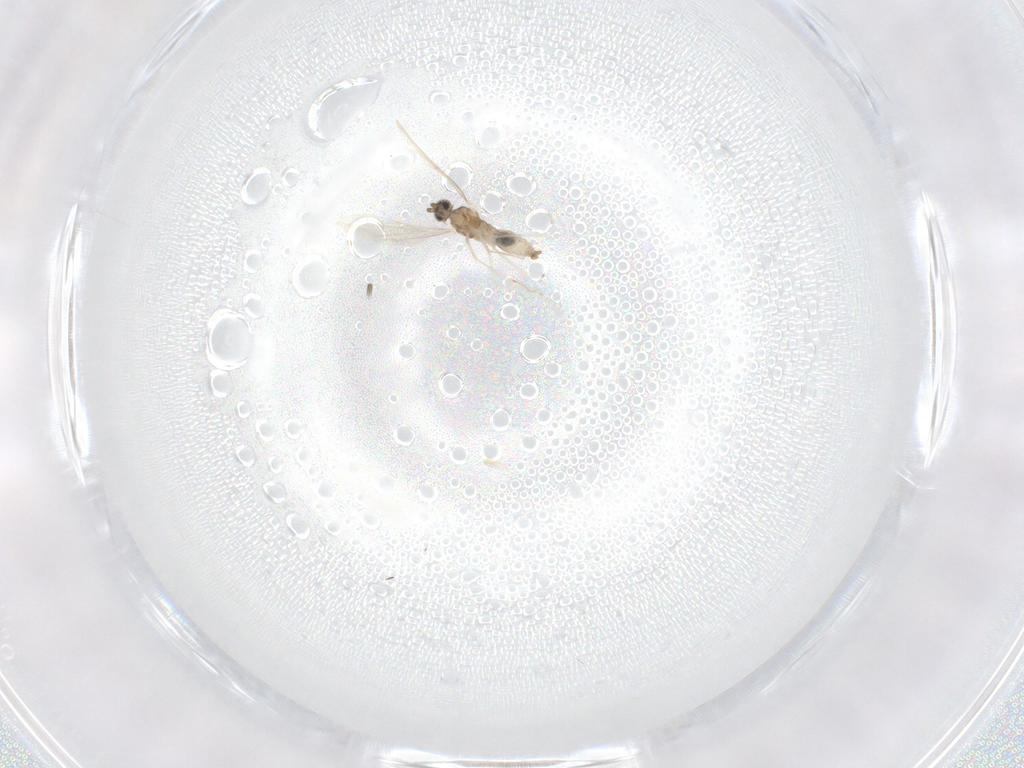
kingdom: Animalia
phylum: Arthropoda
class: Insecta
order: Diptera
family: Cecidomyiidae
